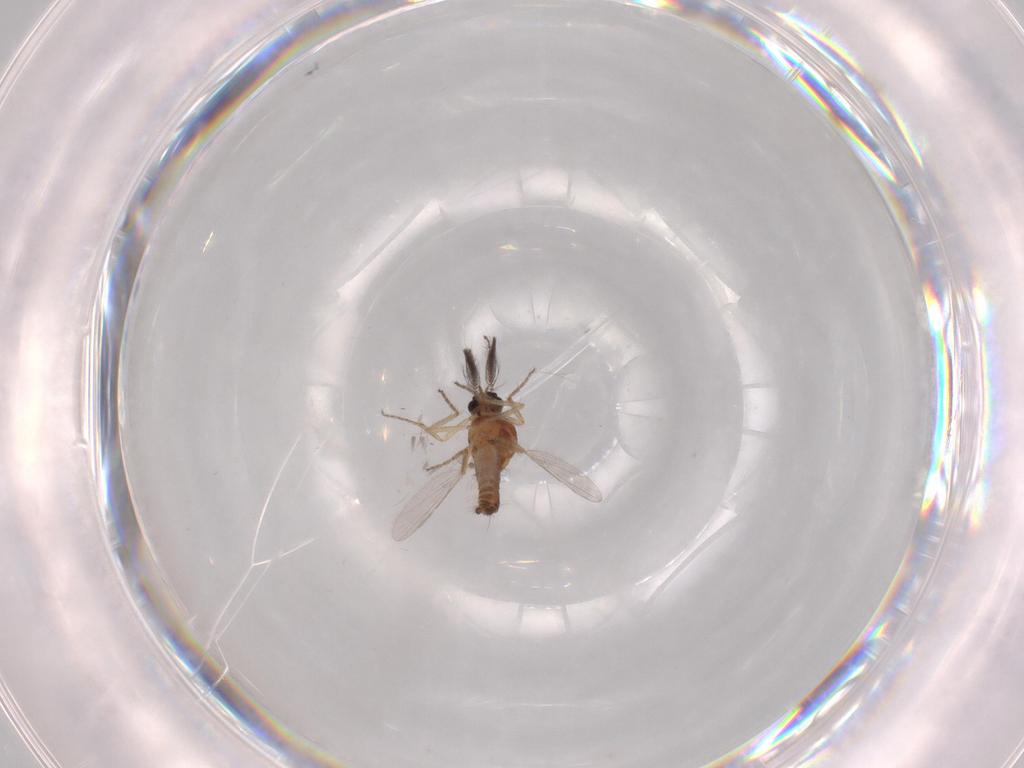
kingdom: Animalia
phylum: Arthropoda
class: Insecta
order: Diptera
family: Ceratopogonidae
